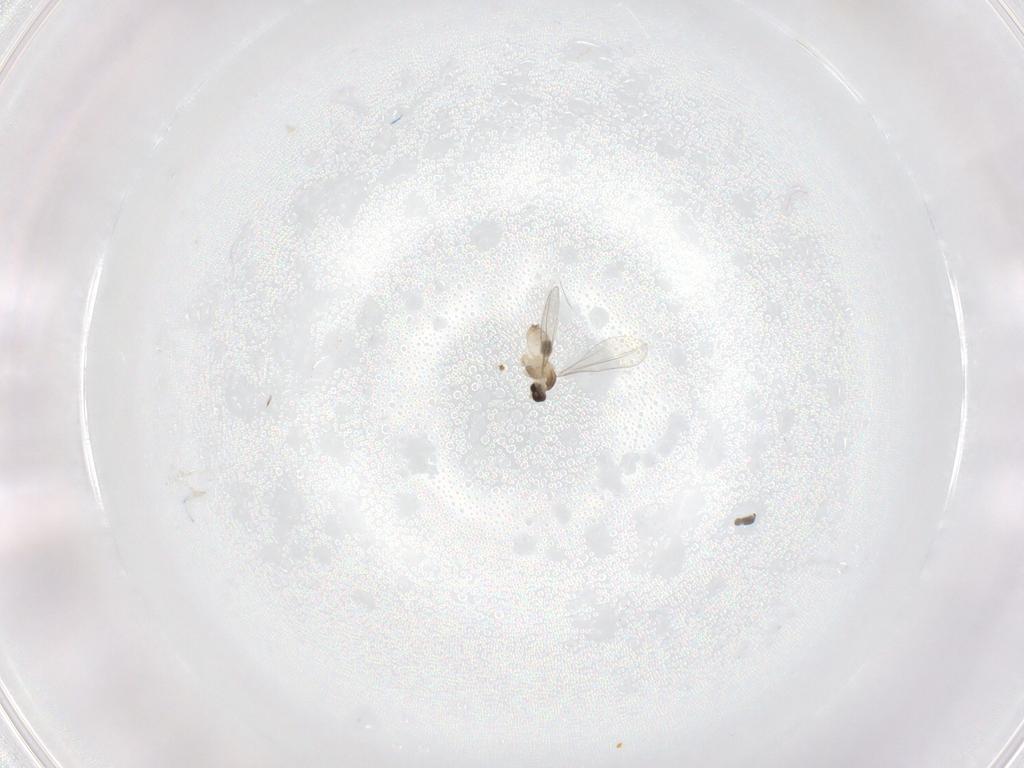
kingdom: Animalia
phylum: Arthropoda
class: Insecta
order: Diptera
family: Cecidomyiidae
